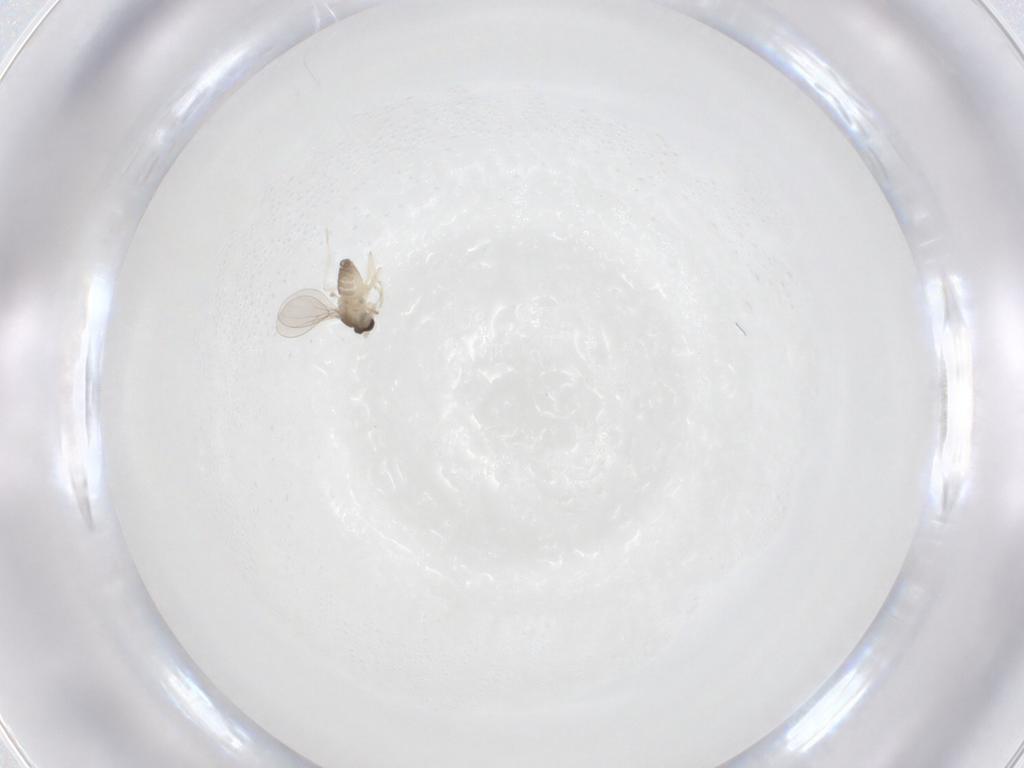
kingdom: Animalia
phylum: Arthropoda
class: Insecta
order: Diptera
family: Cecidomyiidae
